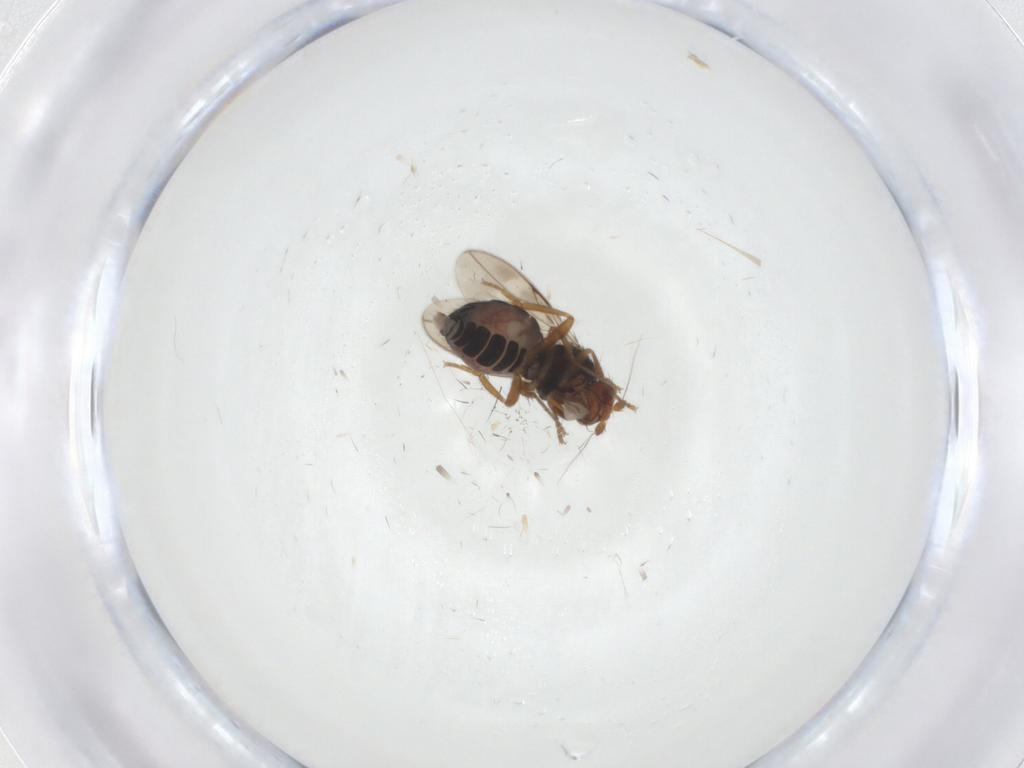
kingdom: Animalia
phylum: Arthropoda
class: Insecta
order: Diptera
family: Sphaeroceridae
